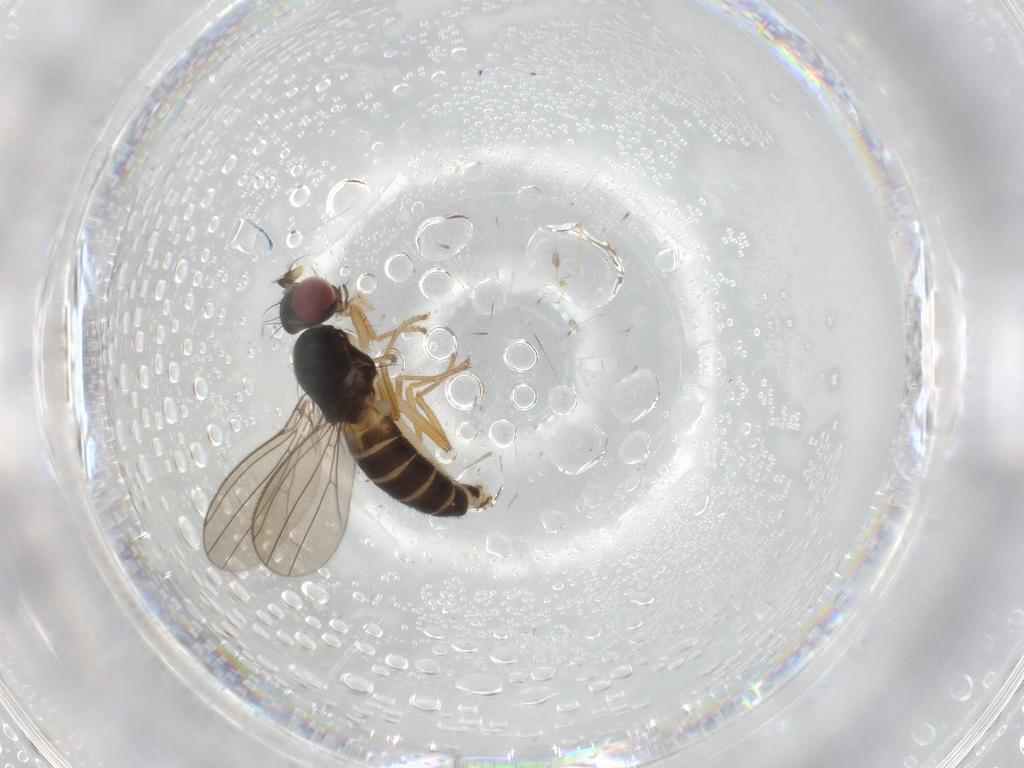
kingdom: Animalia
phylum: Arthropoda
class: Insecta
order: Diptera
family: Anthomyzidae
